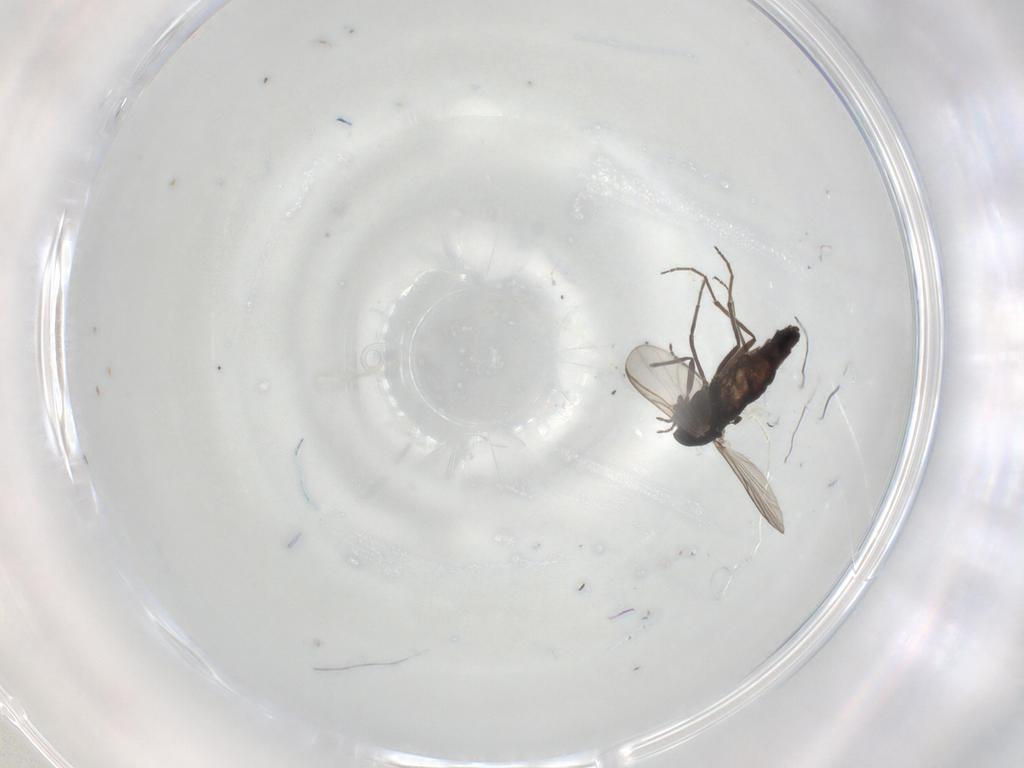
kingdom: Animalia
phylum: Arthropoda
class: Insecta
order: Diptera
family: Chironomidae
